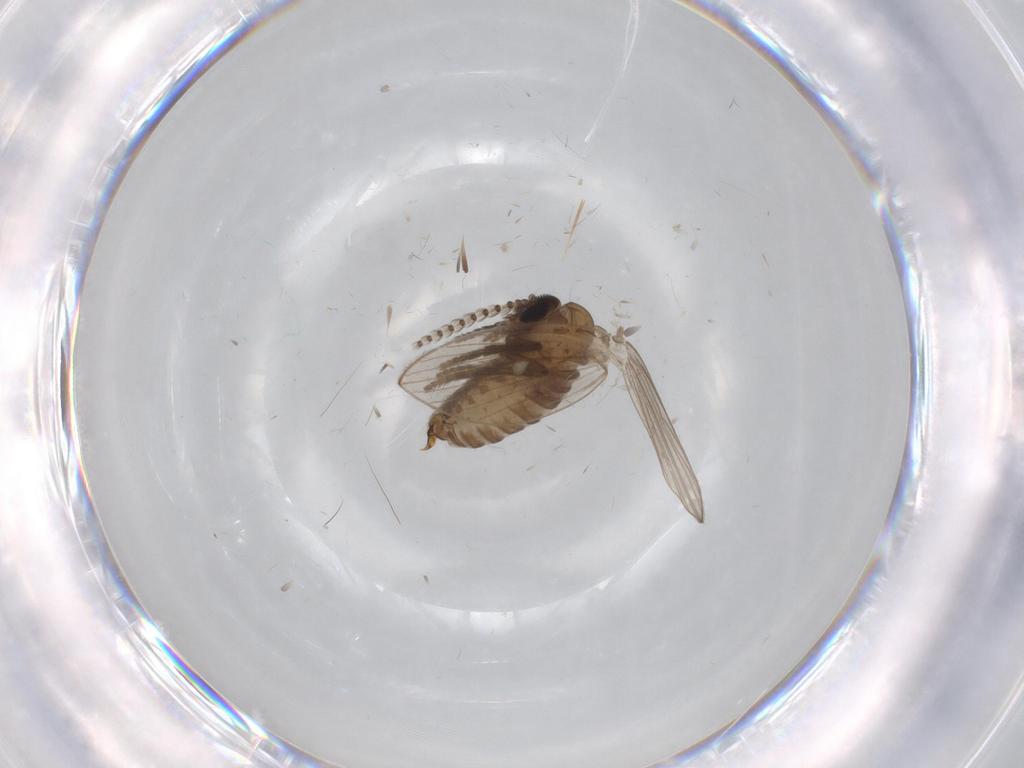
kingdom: Animalia
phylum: Arthropoda
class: Insecta
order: Diptera
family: Psychodidae
